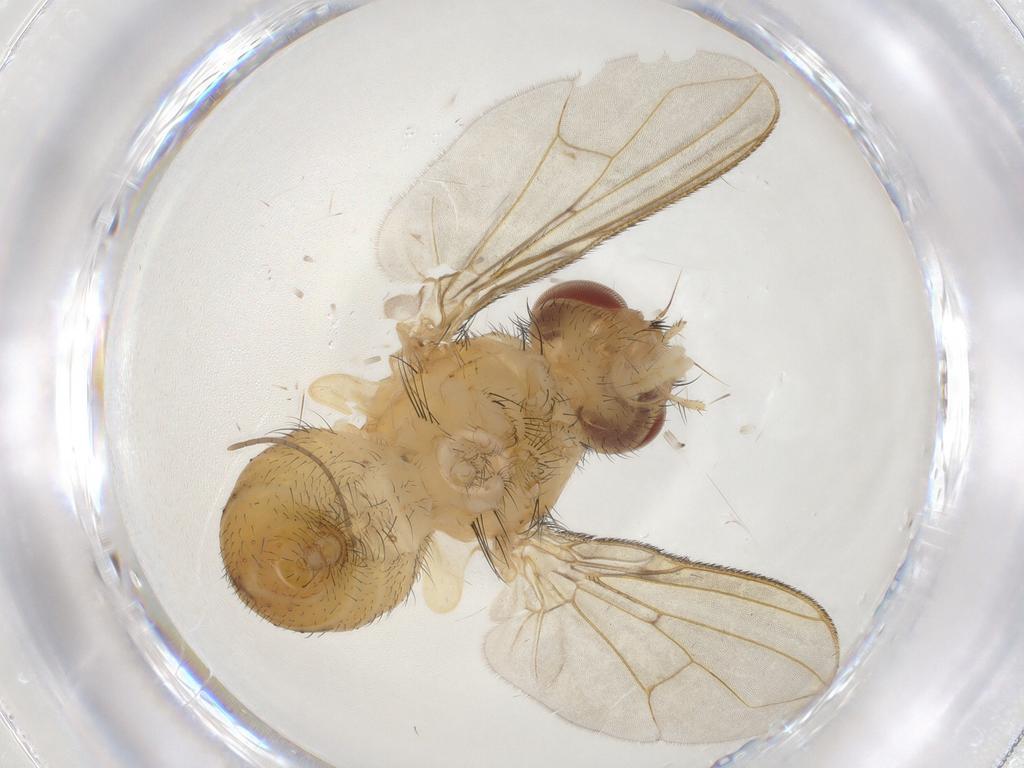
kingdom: Animalia
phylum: Arthropoda
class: Insecta
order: Diptera
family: Tachinidae
